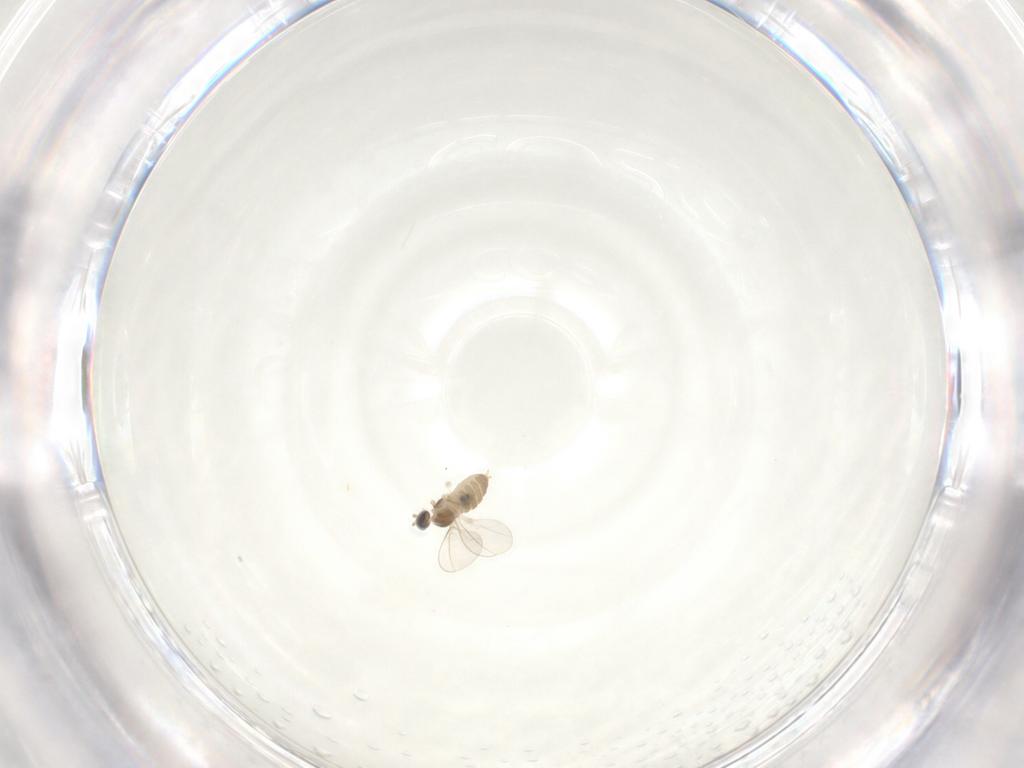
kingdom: Animalia
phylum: Arthropoda
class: Insecta
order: Diptera
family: Cecidomyiidae
